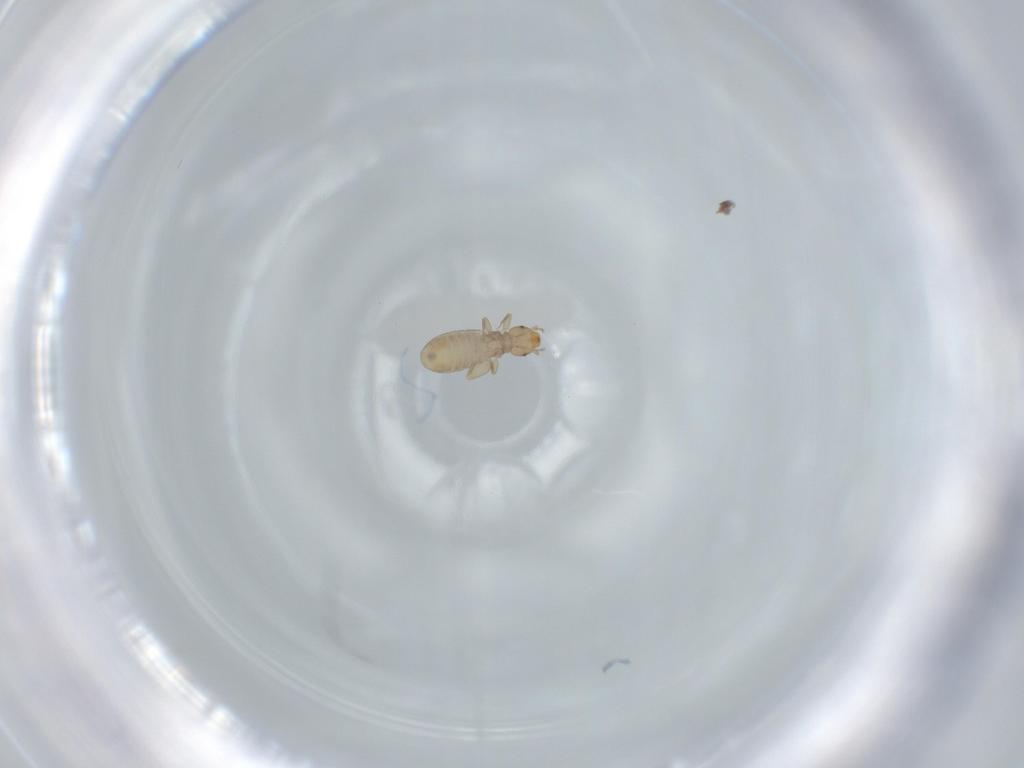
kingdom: Animalia
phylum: Arthropoda
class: Insecta
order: Psocodea
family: Liposcelididae
